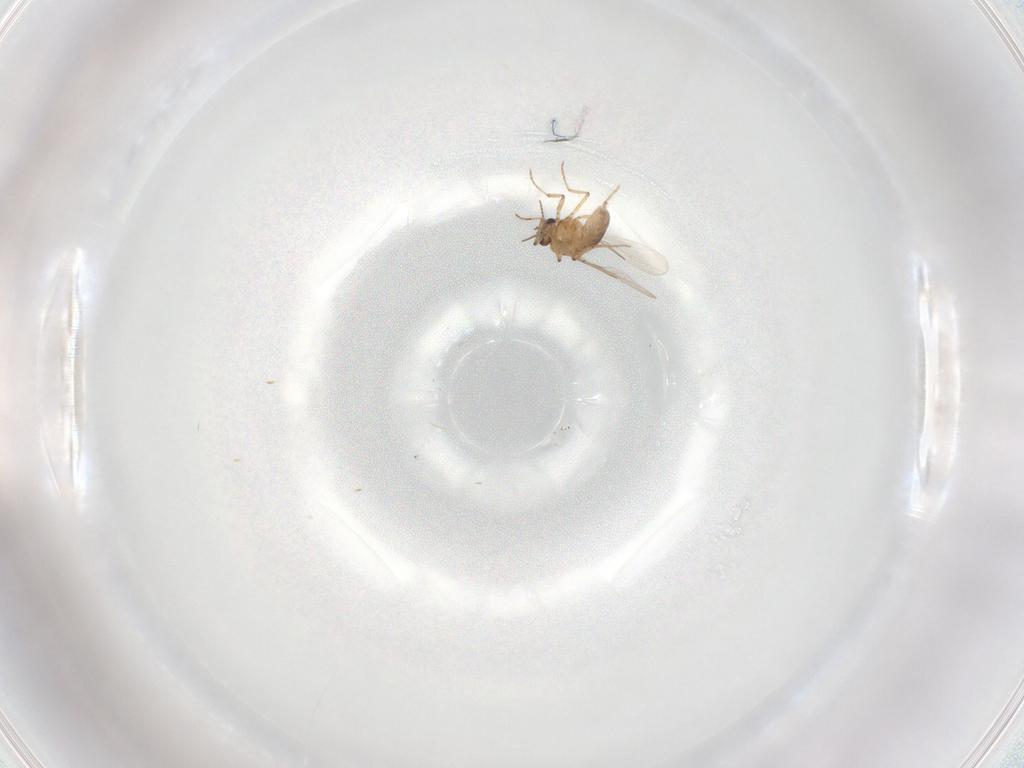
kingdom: Animalia
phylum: Arthropoda
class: Insecta
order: Diptera
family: Ceratopogonidae
